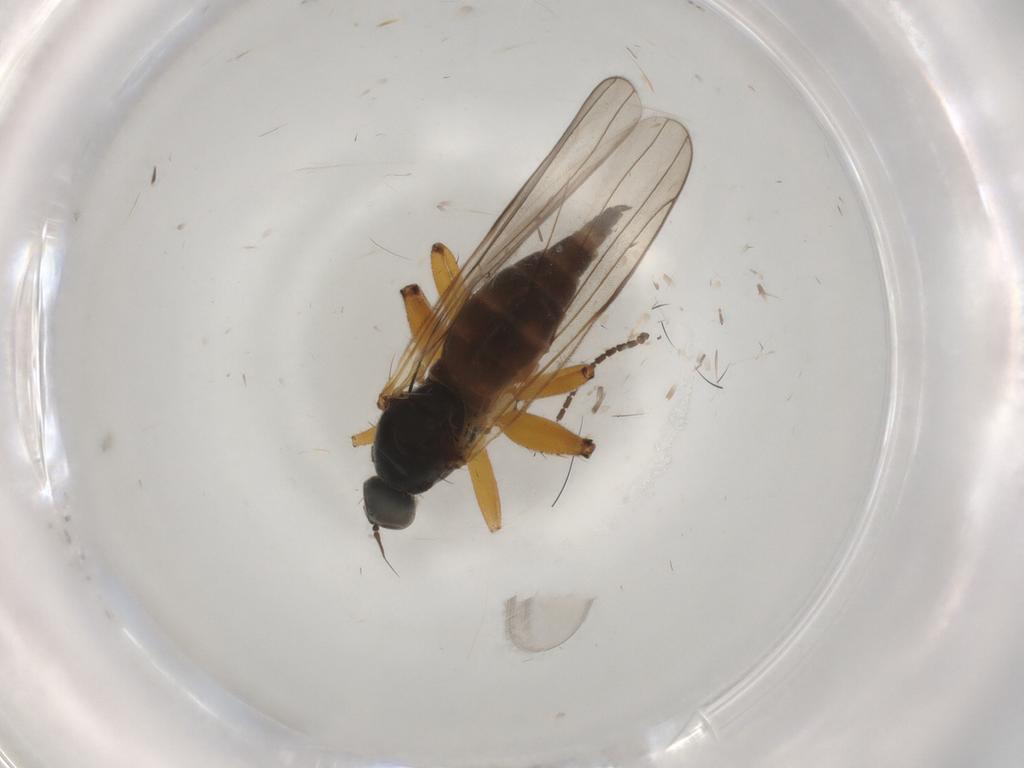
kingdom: Animalia
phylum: Arthropoda
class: Insecta
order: Diptera
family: Hybotidae
